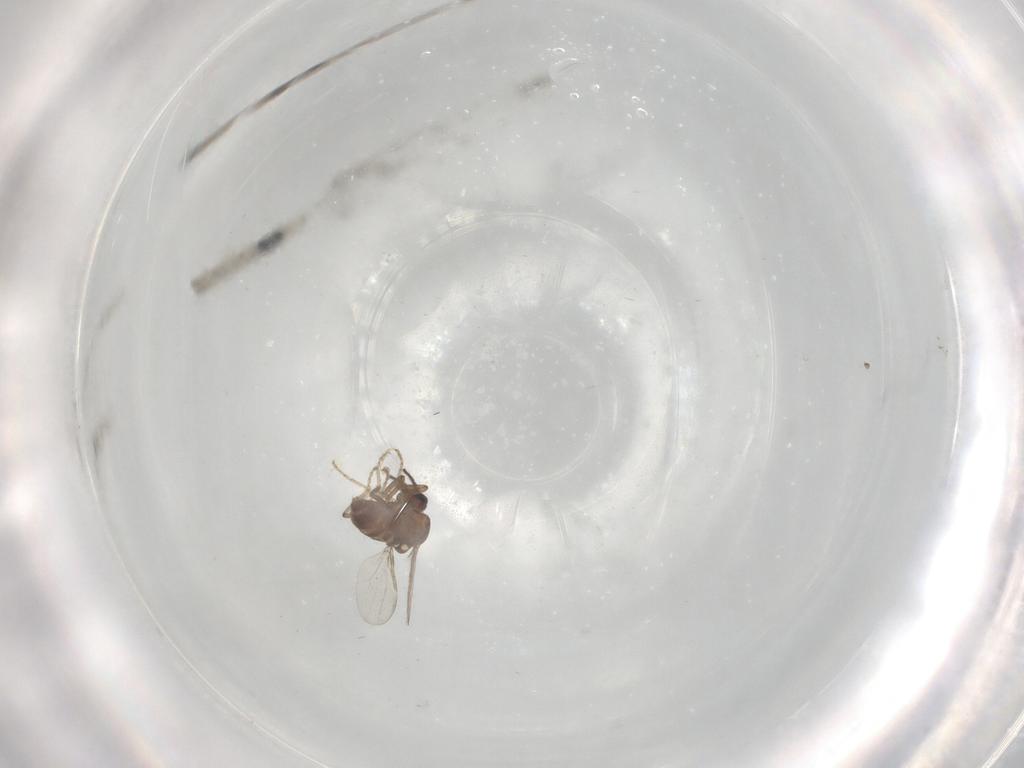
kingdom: Animalia
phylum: Arthropoda
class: Insecta
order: Diptera
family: Ceratopogonidae
